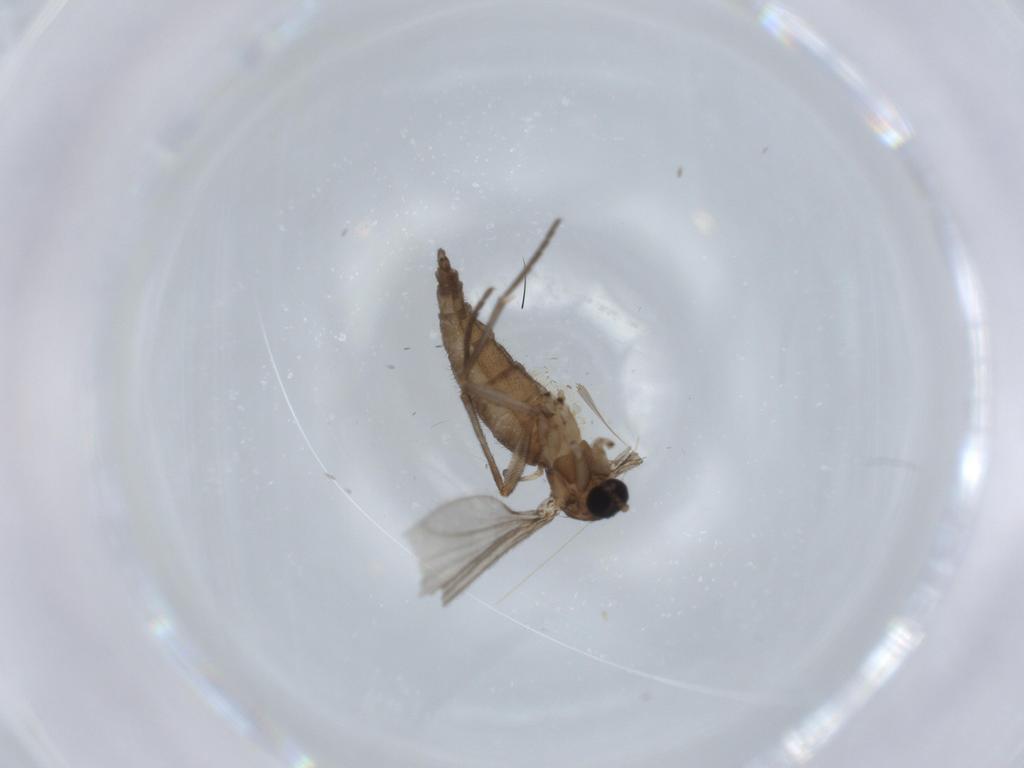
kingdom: Animalia
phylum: Arthropoda
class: Insecta
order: Diptera
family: Sciaridae
